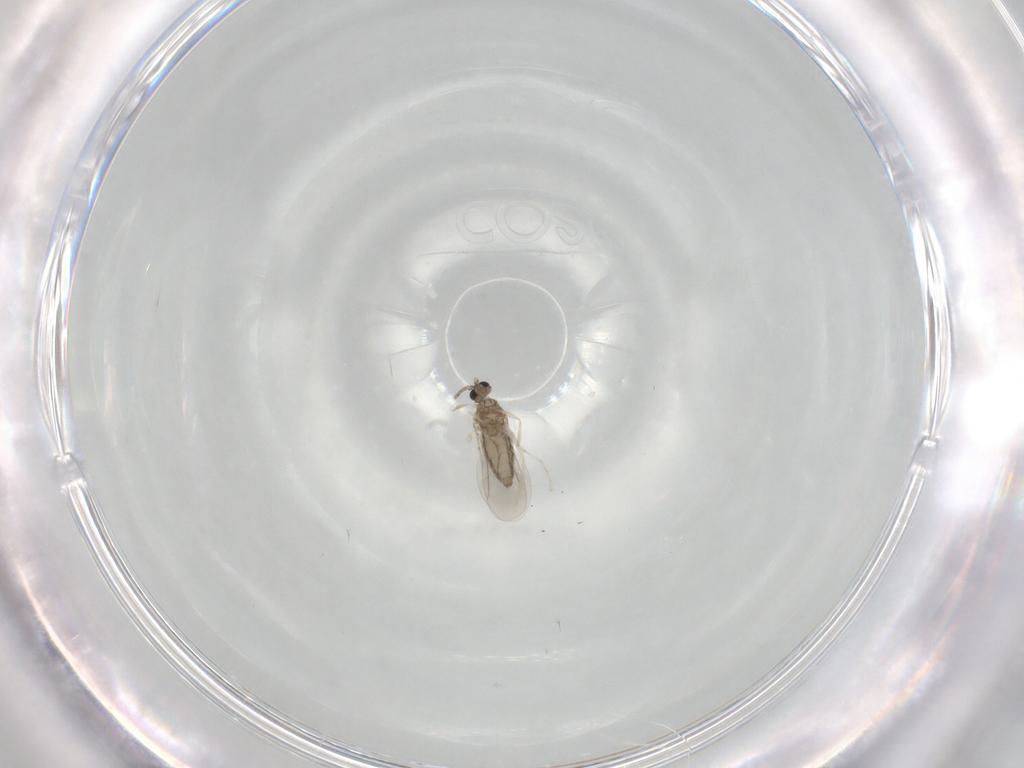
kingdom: Animalia
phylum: Arthropoda
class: Insecta
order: Diptera
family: Cecidomyiidae
